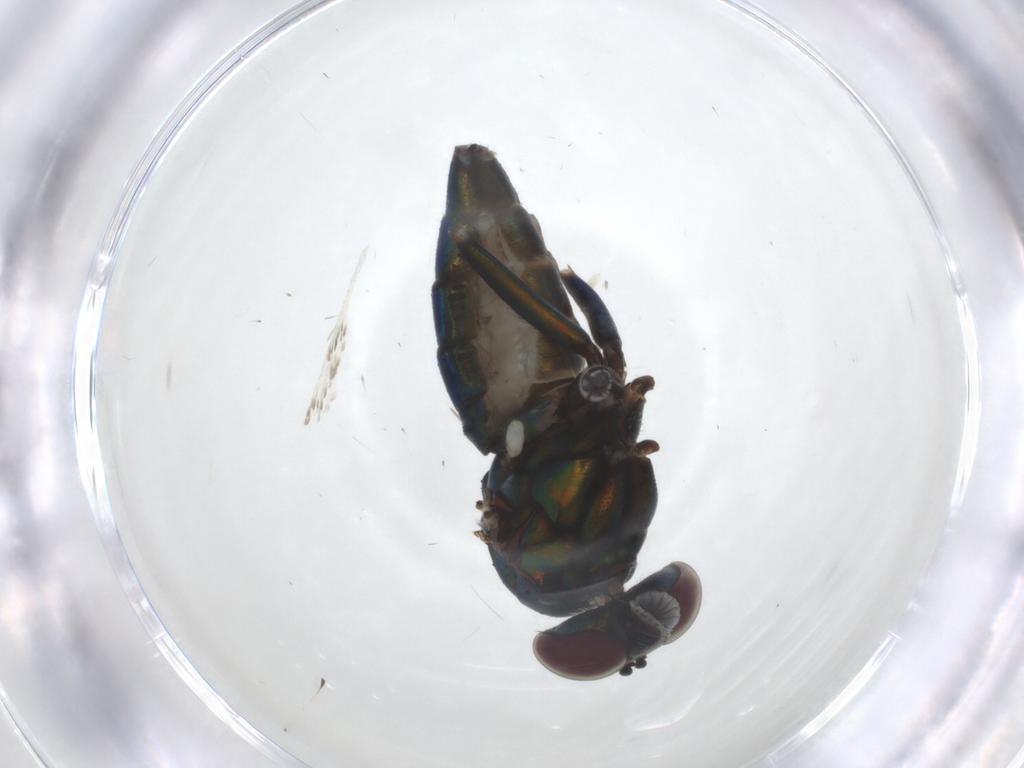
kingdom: Animalia
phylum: Arthropoda
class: Insecta
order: Diptera
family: Dolichopodidae
